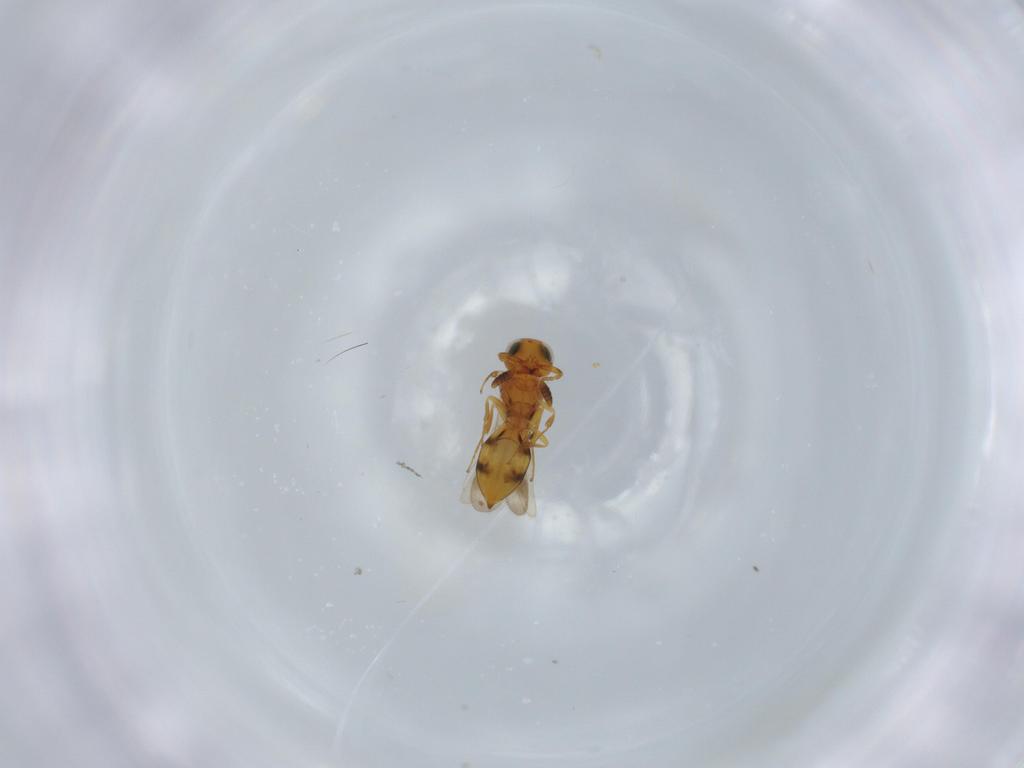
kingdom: Animalia
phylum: Arthropoda
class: Insecta
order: Hymenoptera
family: Scelionidae
